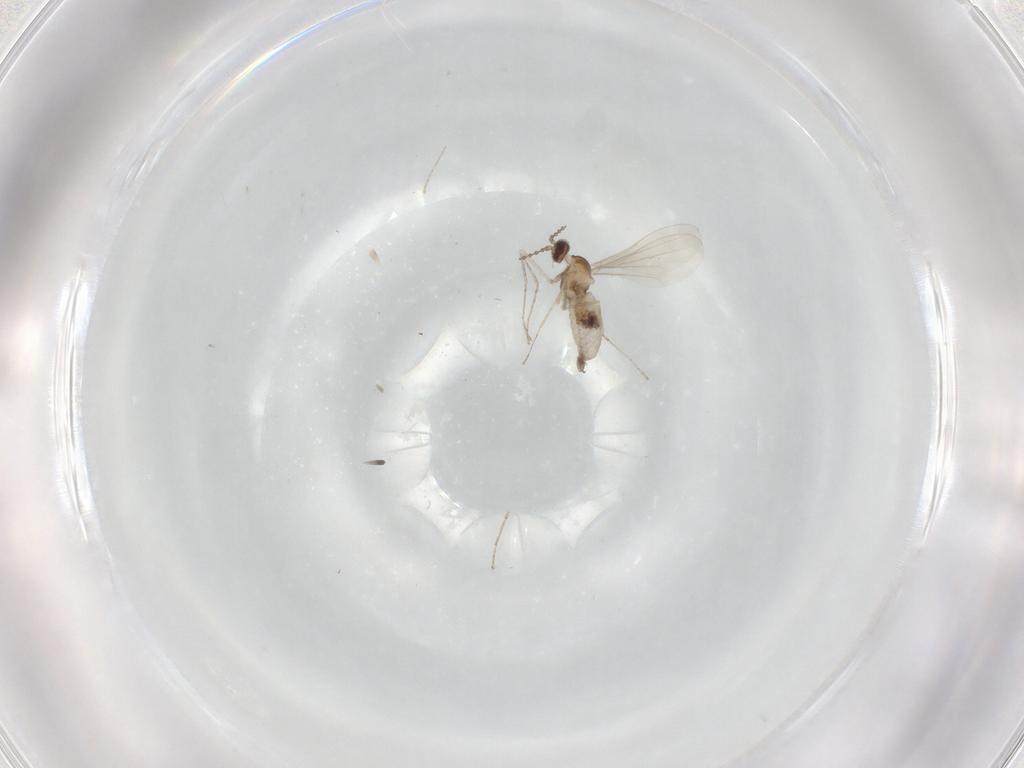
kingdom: Animalia
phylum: Arthropoda
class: Insecta
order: Diptera
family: Cecidomyiidae
